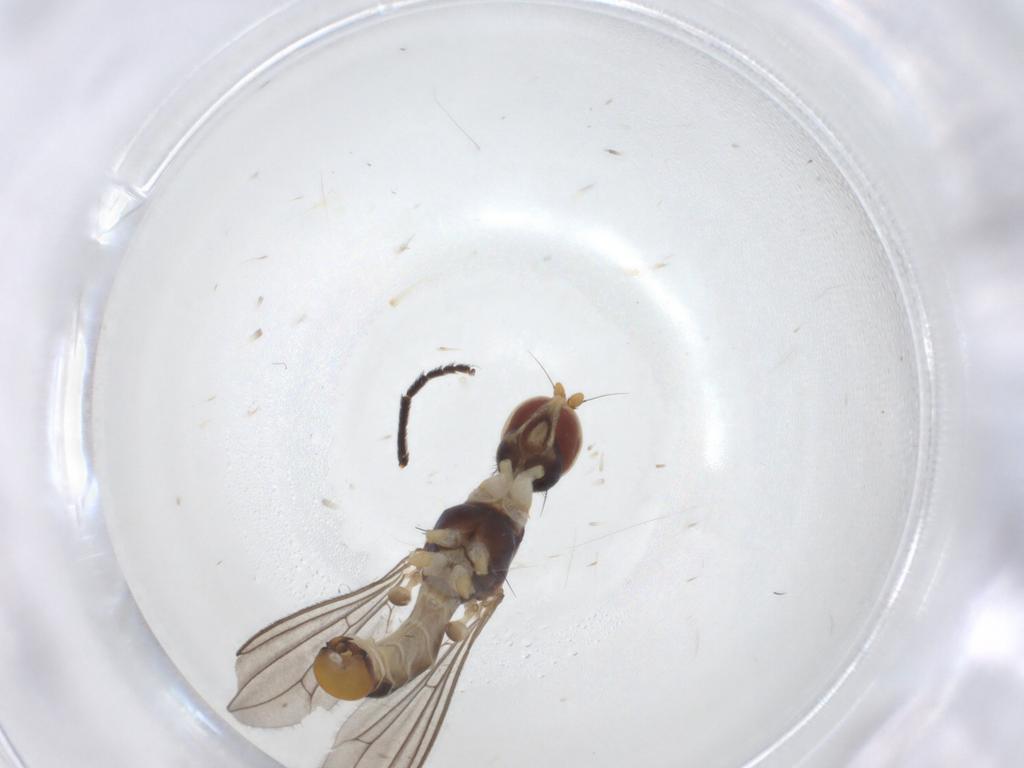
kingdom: Animalia
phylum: Arthropoda
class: Insecta
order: Diptera
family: Micropezidae
